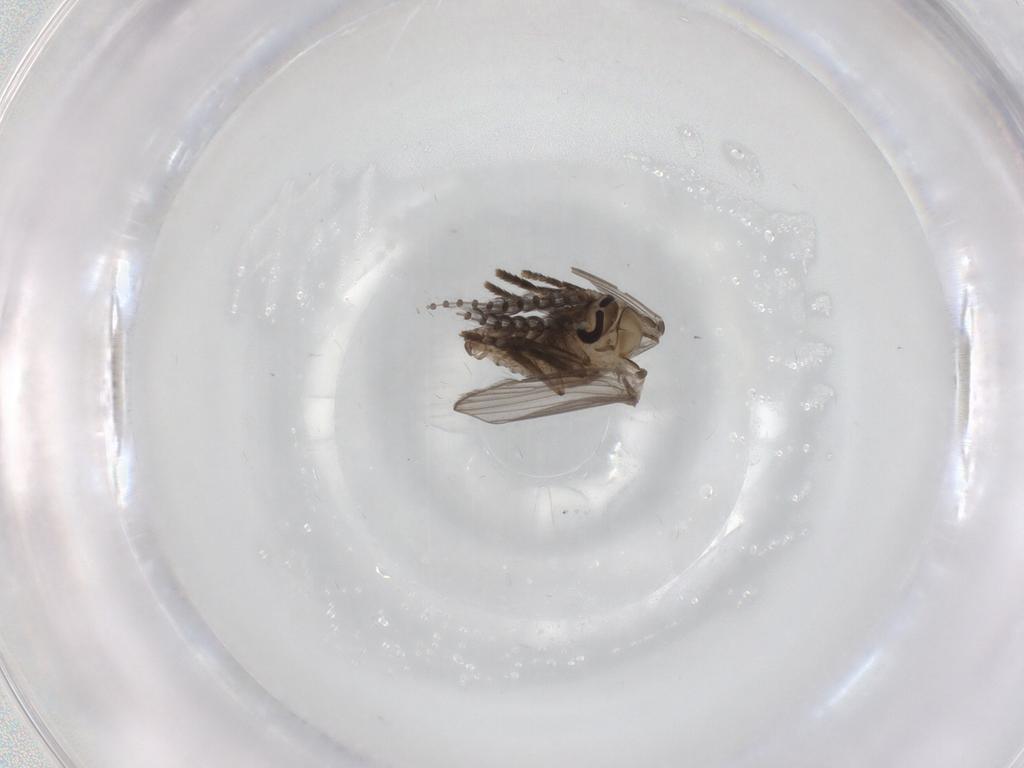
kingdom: Animalia
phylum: Arthropoda
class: Insecta
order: Diptera
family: Psychodidae
